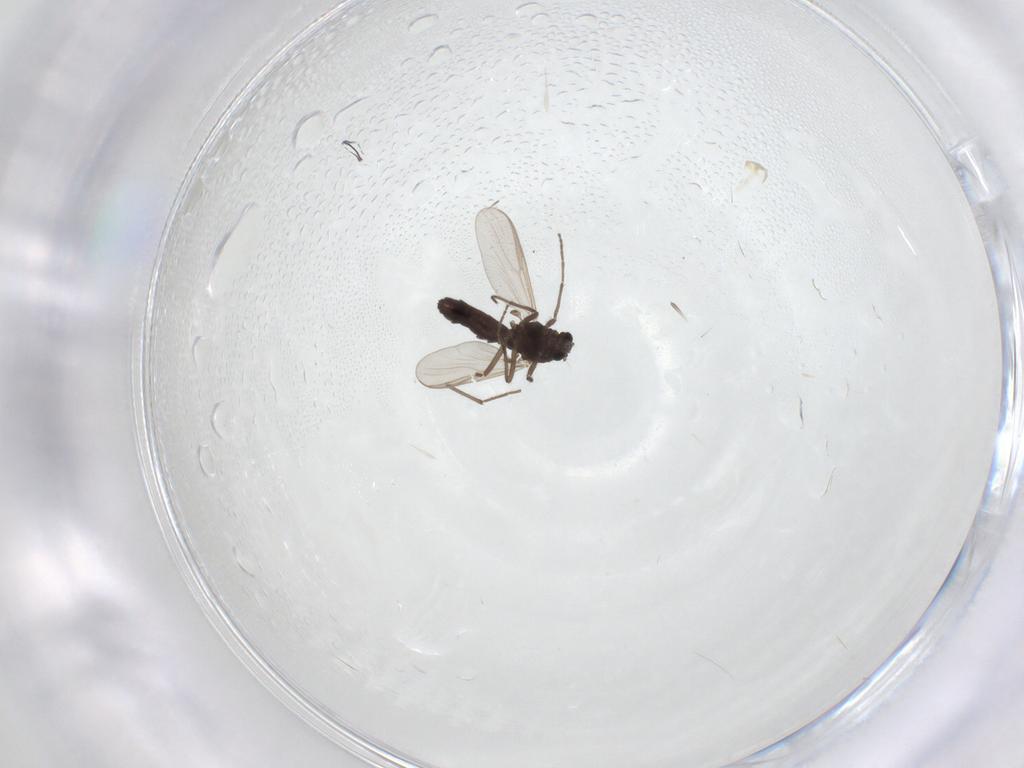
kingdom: Animalia
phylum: Arthropoda
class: Insecta
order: Diptera
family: Chironomidae
